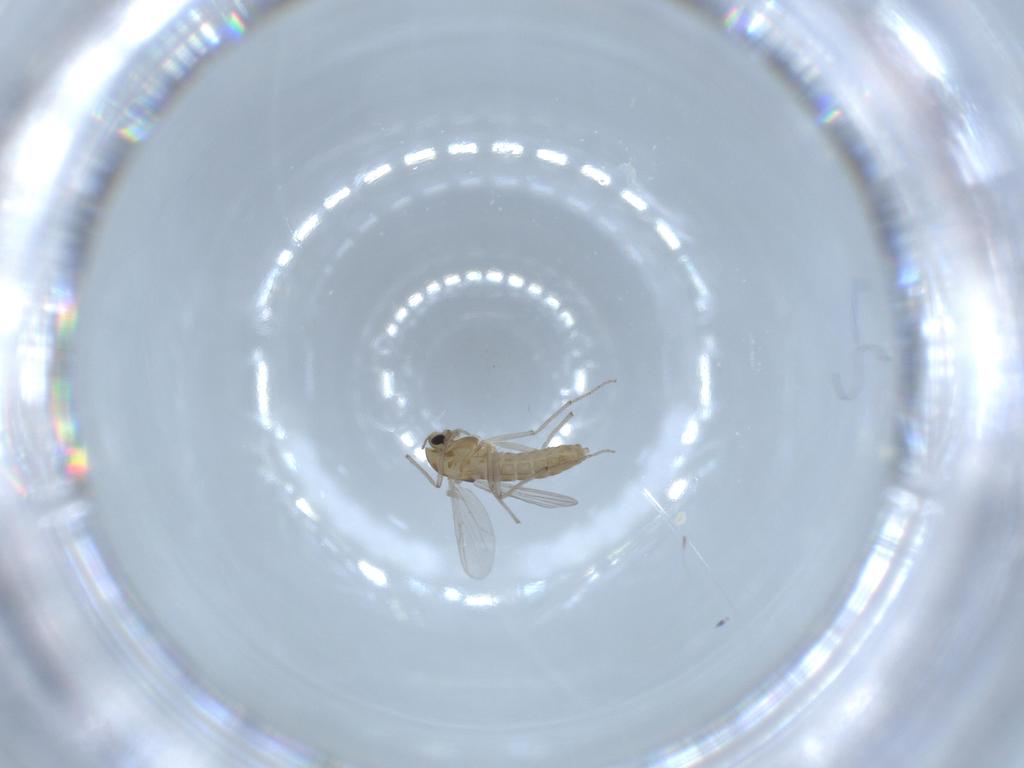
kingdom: Animalia
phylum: Arthropoda
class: Insecta
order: Diptera
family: Chironomidae
